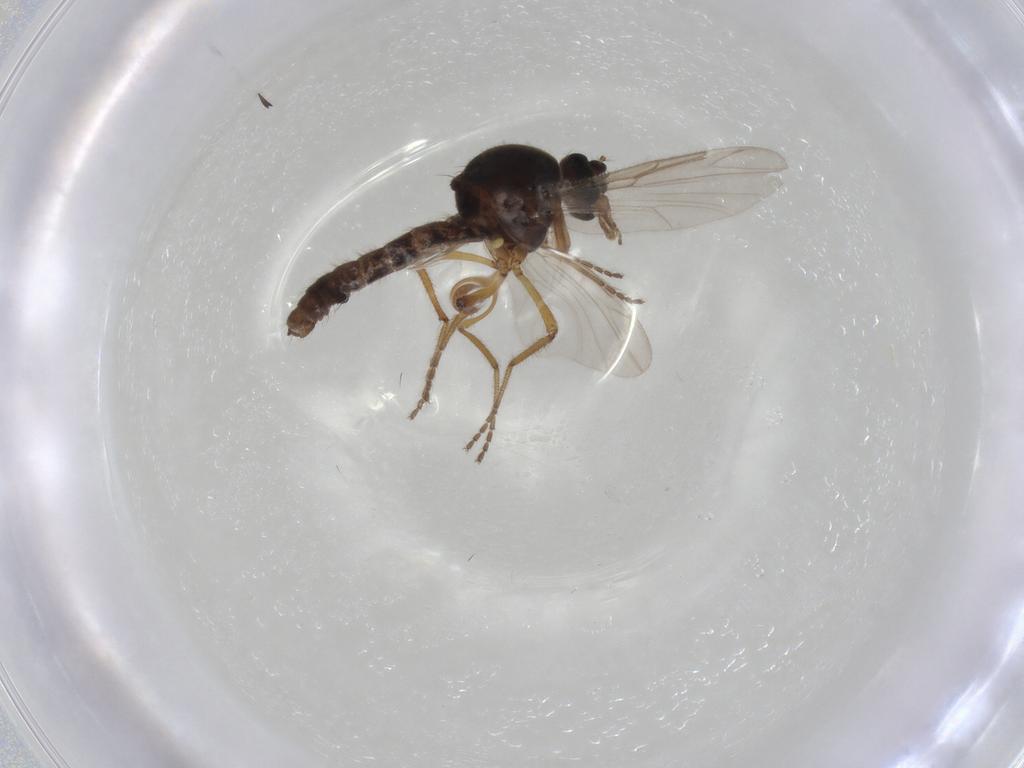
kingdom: Animalia
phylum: Arthropoda
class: Insecta
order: Diptera
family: Ceratopogonidae
